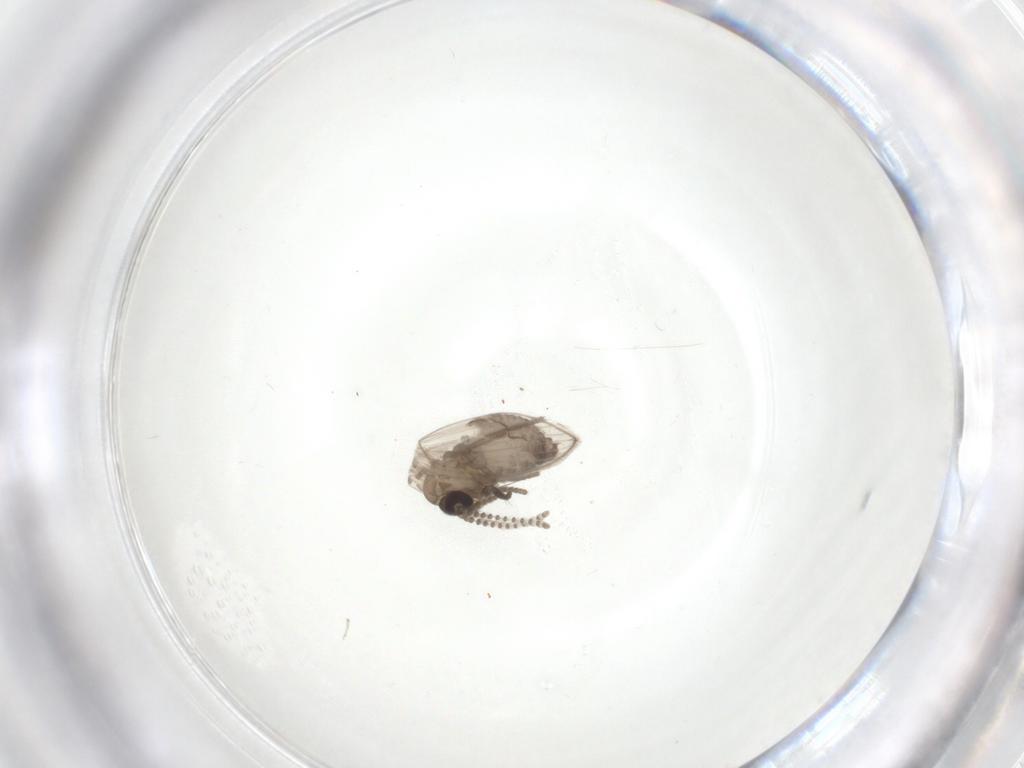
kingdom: Animalia
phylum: Arthropoda
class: Insecta
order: Diptera
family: Psychodidae
